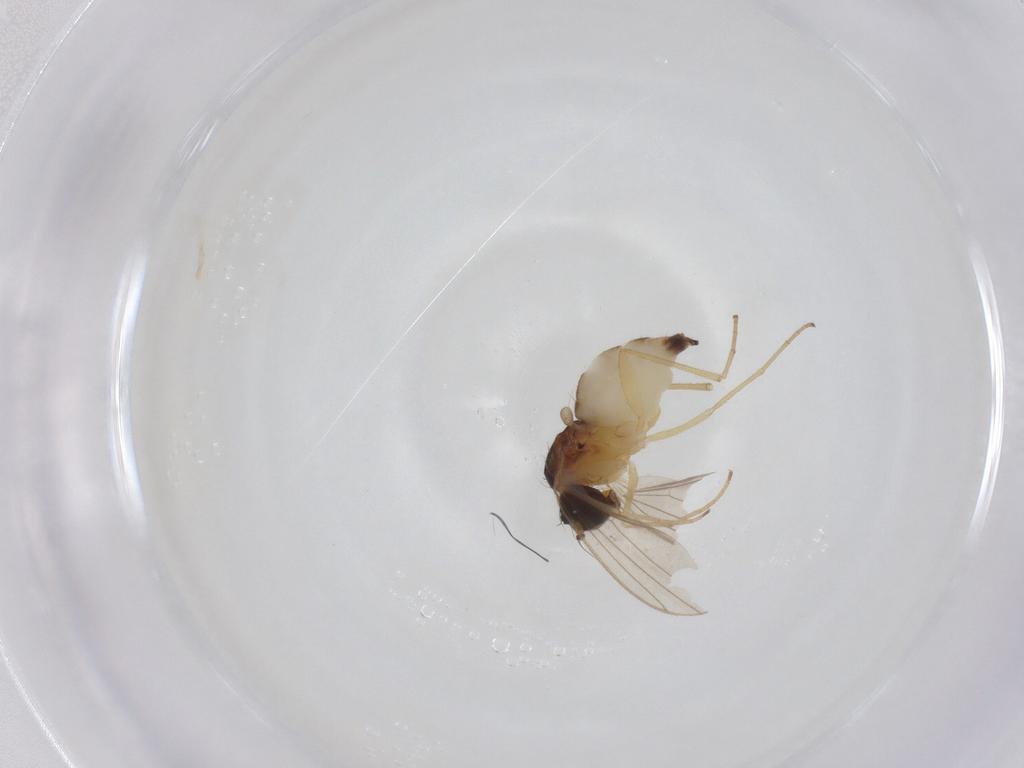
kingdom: Animalia
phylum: Arthropoda
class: Insecta
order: Diptera
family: Dolichopodidae
